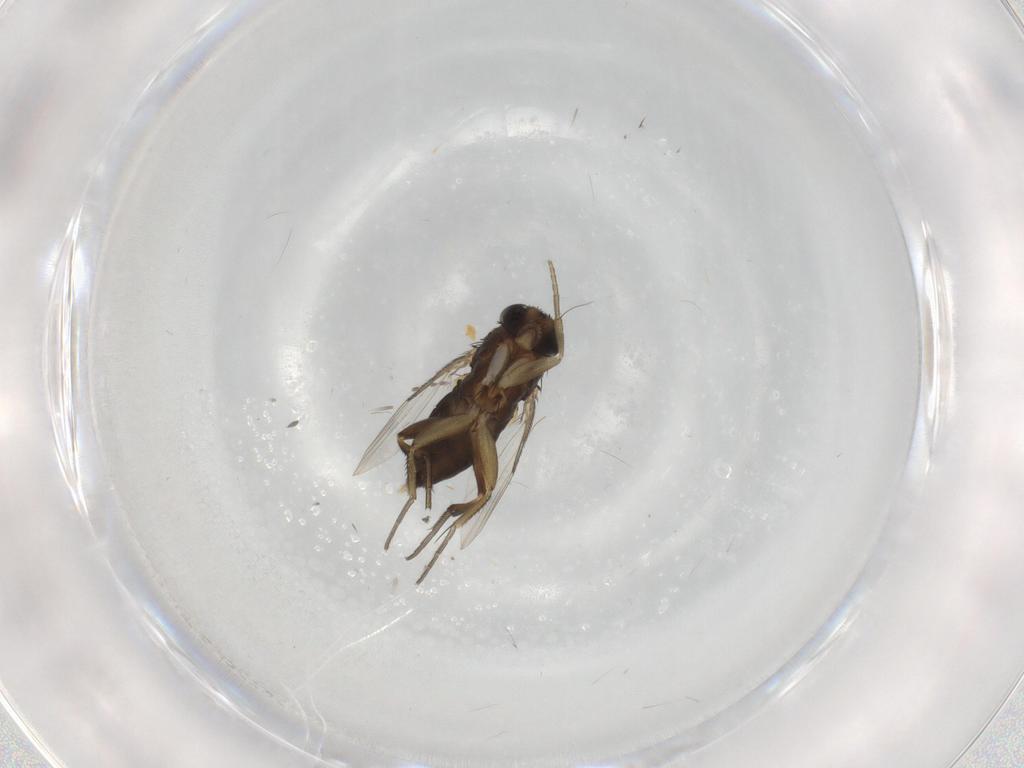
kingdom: Animalia
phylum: Arthropoda
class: Insecta
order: Diptera
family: Phoridae
